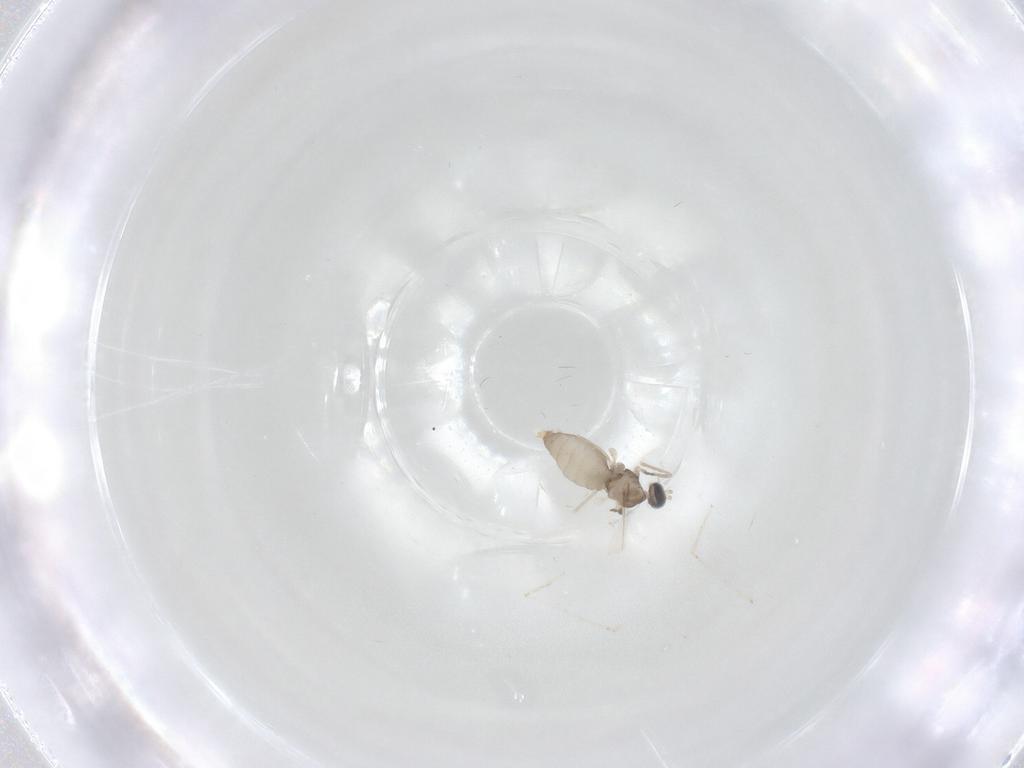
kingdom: Animalia
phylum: Arthropoda
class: Insecta
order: Diptera
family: Cecidomyiidae
